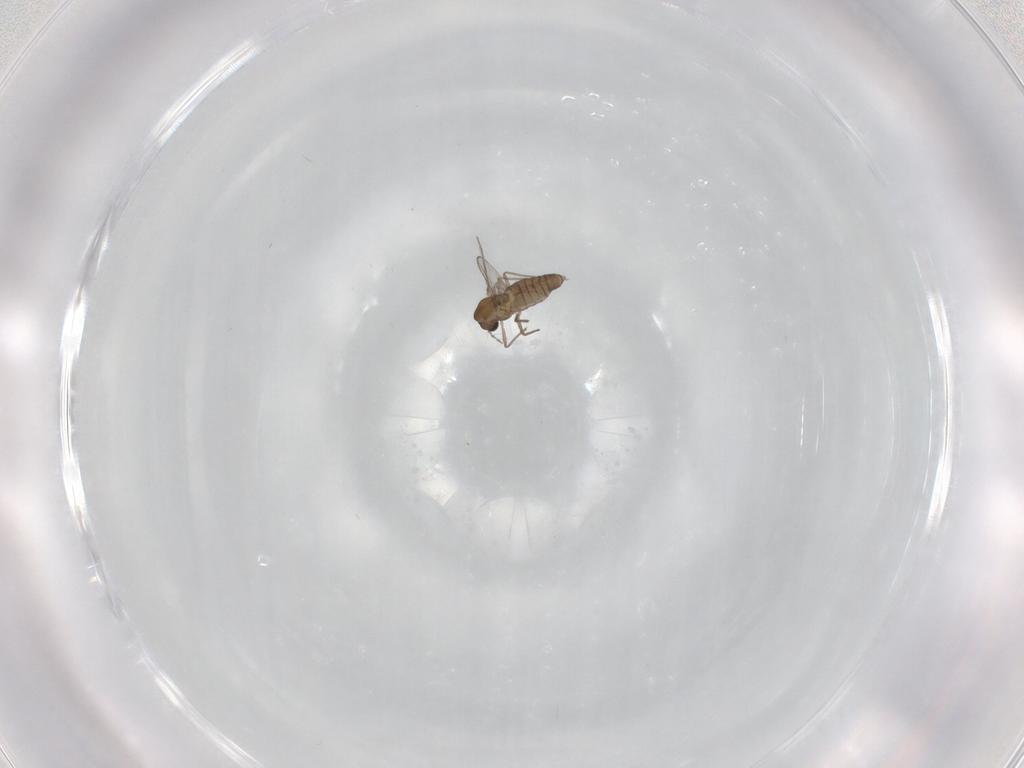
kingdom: Animalia
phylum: Arthropoda
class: Insecta
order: Diptera
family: Chironomidae
